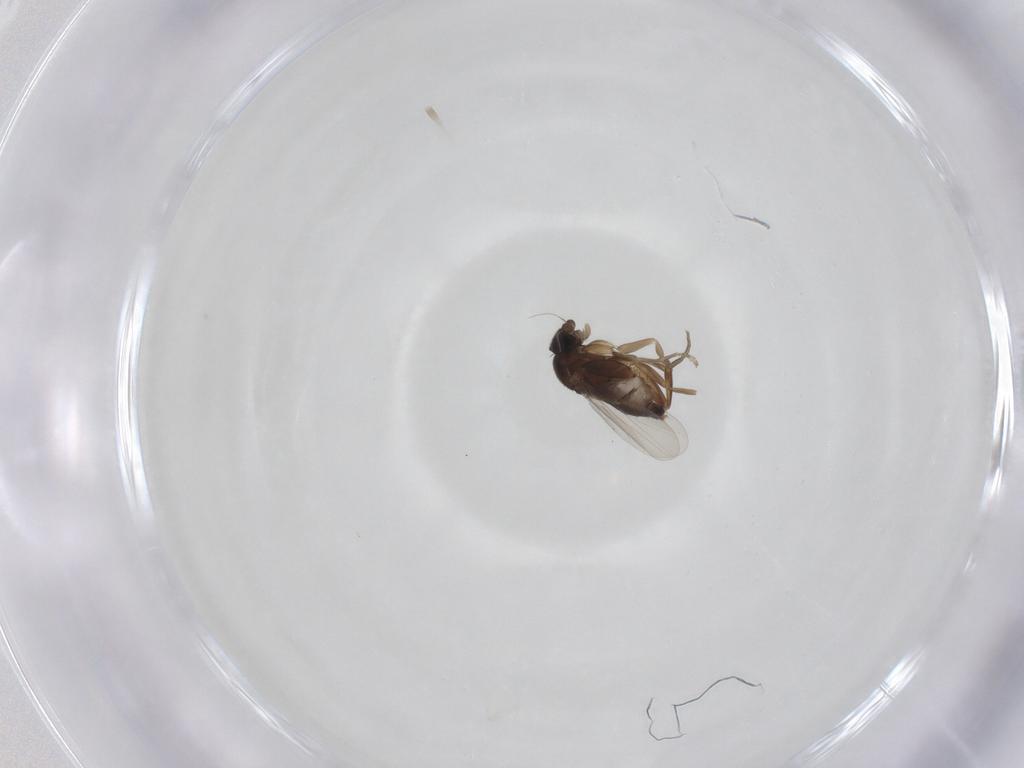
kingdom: Animalia
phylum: Arthropoda
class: Insecta
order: Diptera
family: Phoridae
